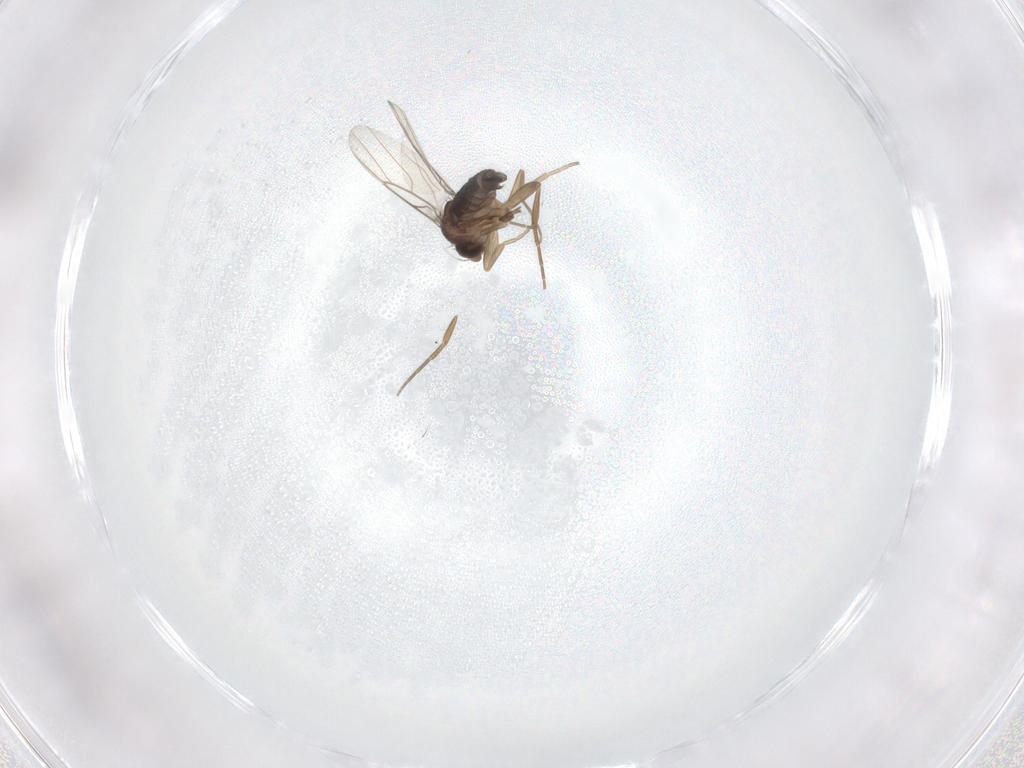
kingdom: Animalia
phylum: Arthropoda
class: Insecta
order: Diptera
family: Phoridae
